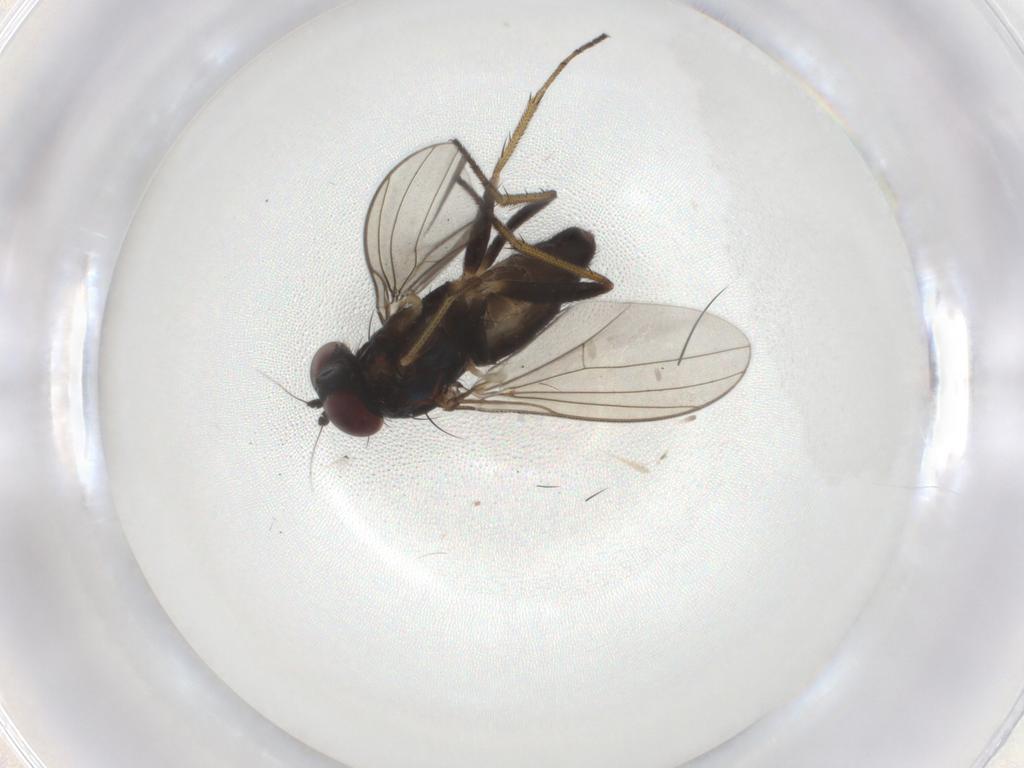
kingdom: Animalia
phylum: Arthropoda
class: Insecta
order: Diptera
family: Dolichopodidae
